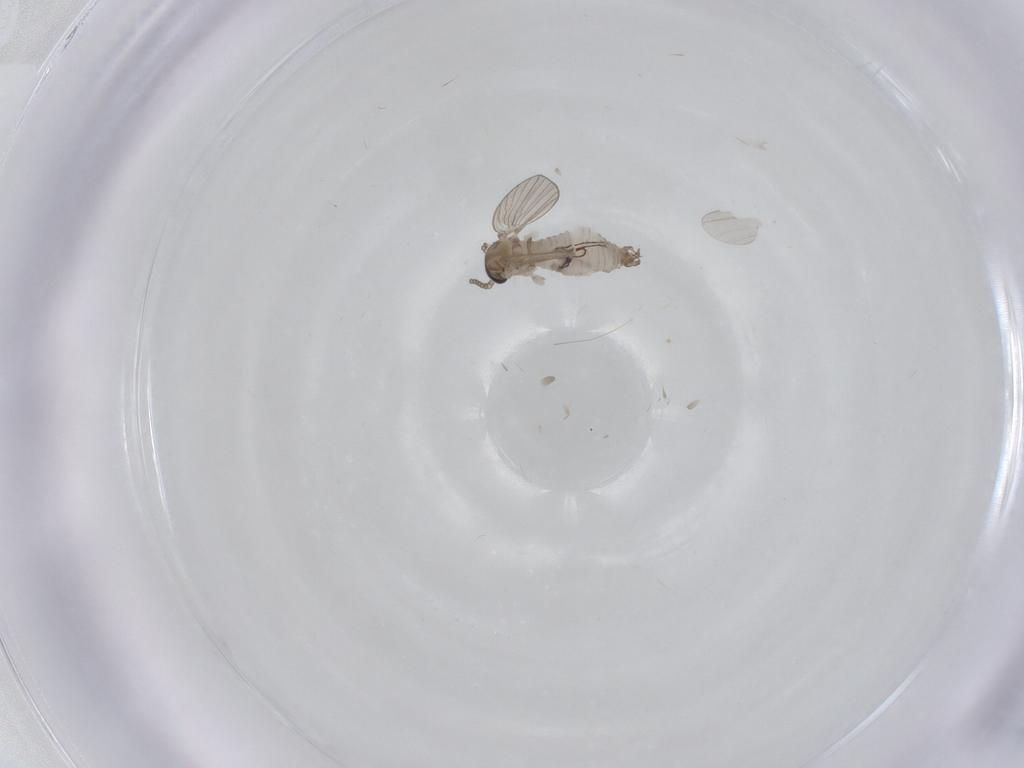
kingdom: Animalia
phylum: Arthropoda
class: Insecta
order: Diptera
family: Psychodidae
